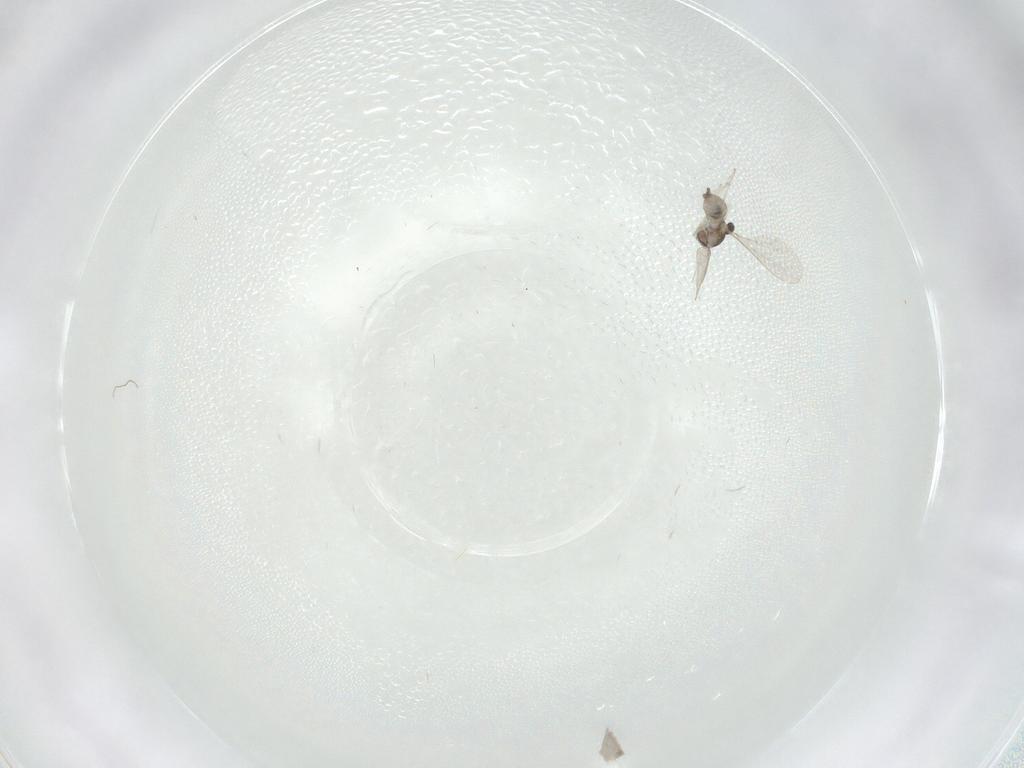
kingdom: Animalia
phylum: Arthropoda
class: Insecta
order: Diptera
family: Cecidomyiidae
